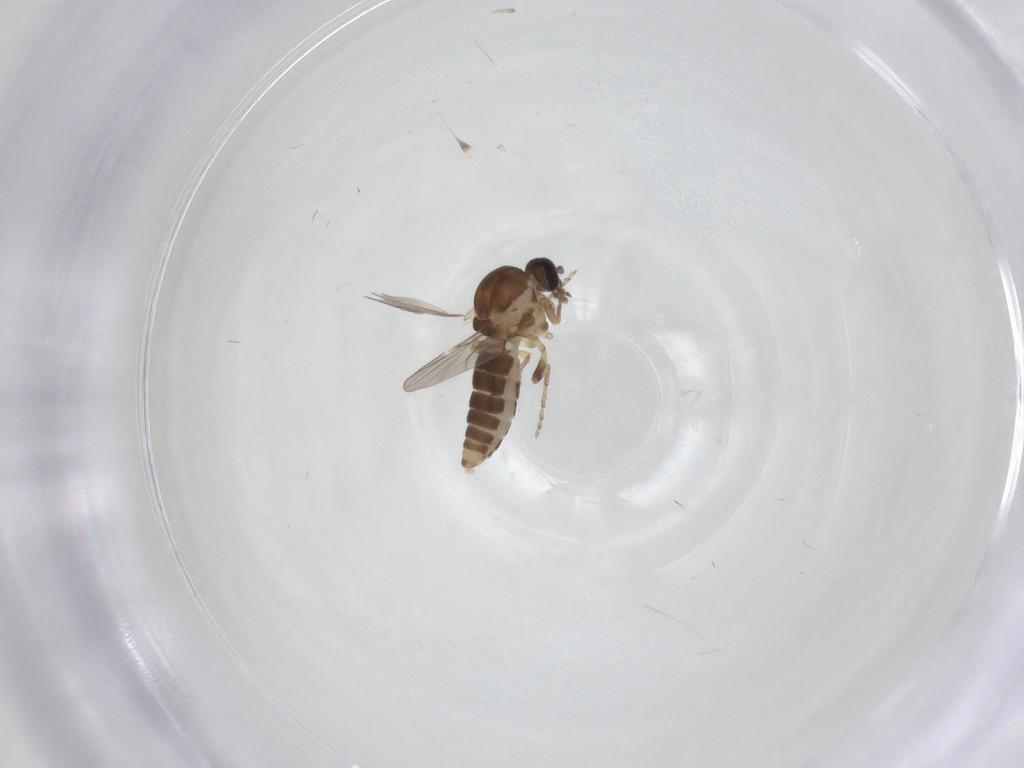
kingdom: Animalia
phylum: Arthropoda
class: Insecta
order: Diptera
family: Ceratopogonidae
